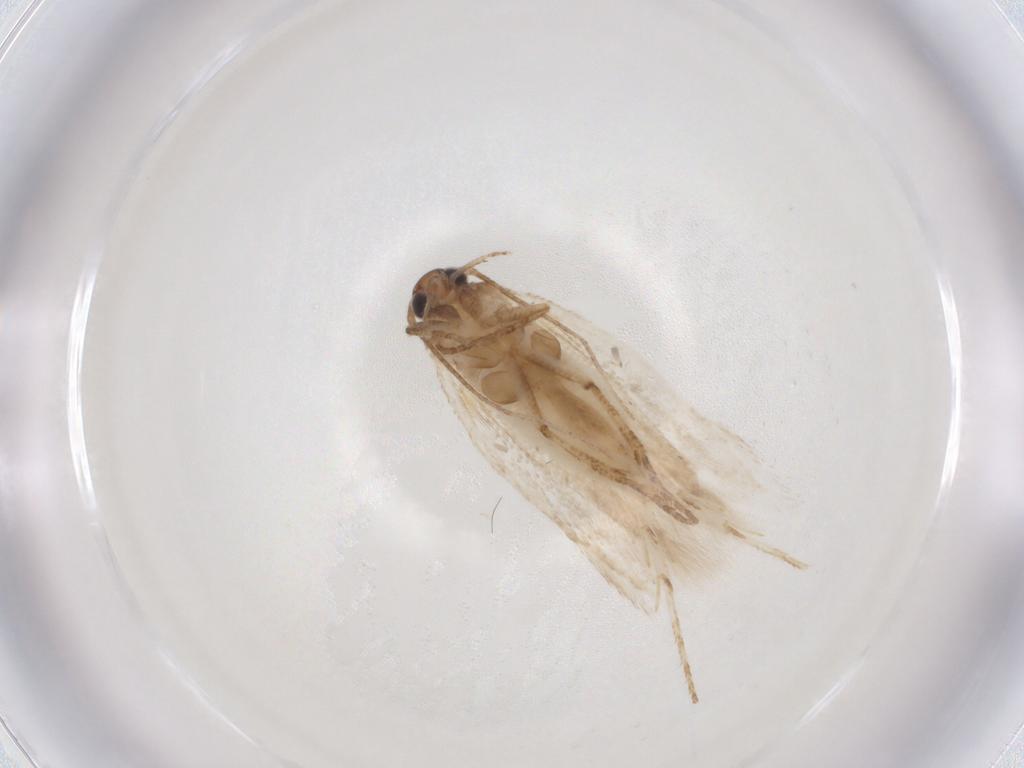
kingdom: Animalia
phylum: Arthropoda
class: Insecta
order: Lepidoptera
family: Gelechiidae
